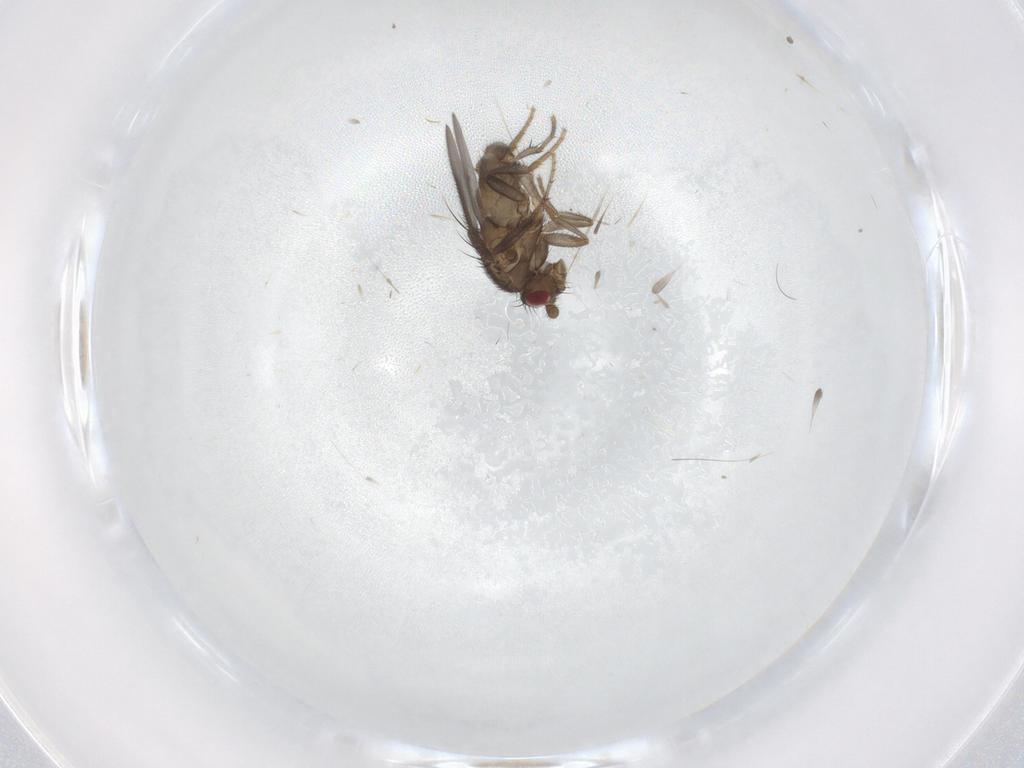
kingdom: Animalia
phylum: Arthropoda
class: Insecta
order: Diptera
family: Sphaeroceridae
